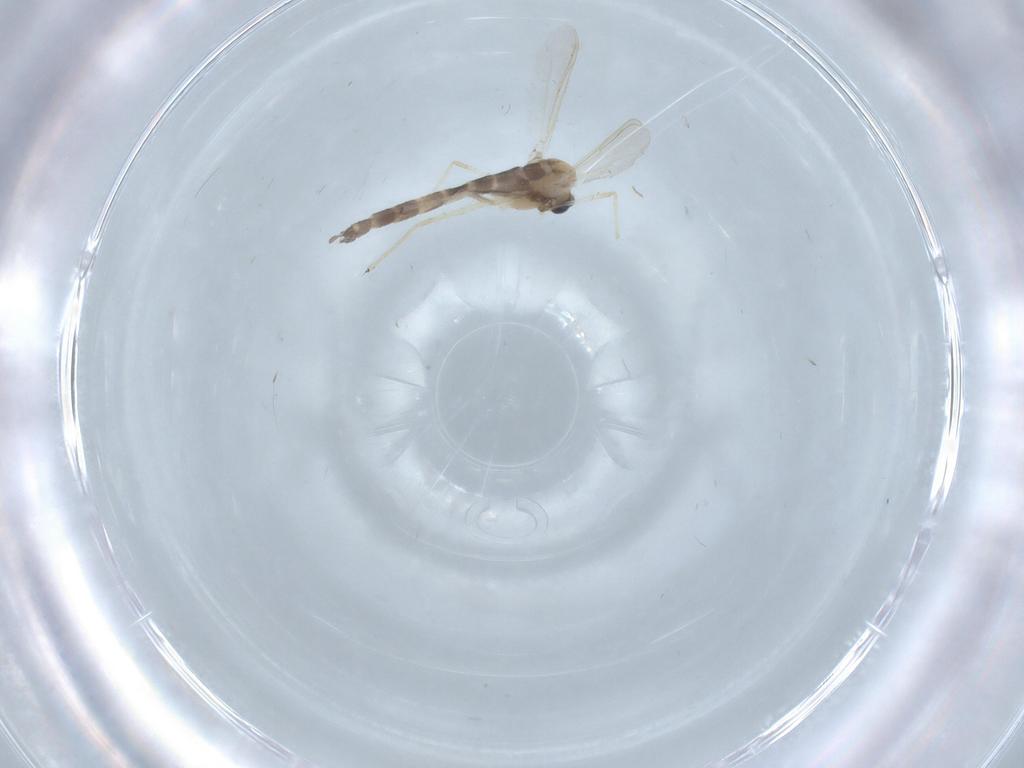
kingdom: Animalia
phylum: Arthropoda
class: Insecta
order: Diptera
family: Chironomidae
